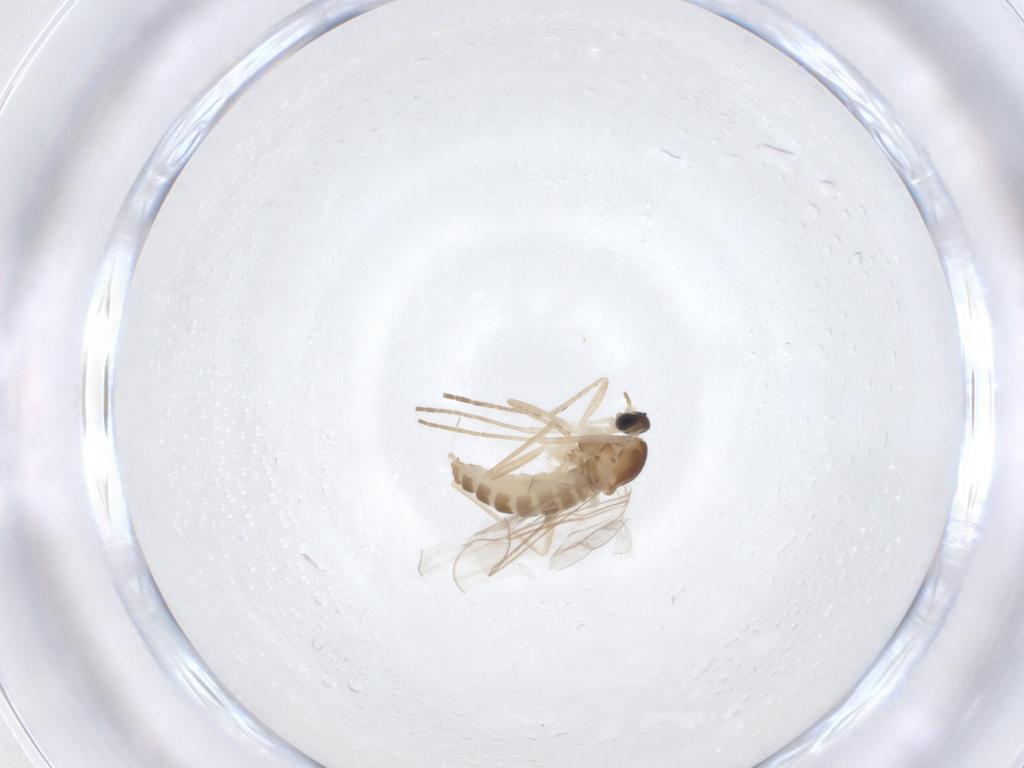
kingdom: Animalia
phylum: Arthropoda
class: Insecta
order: Diptera
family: Cecidomyiidae
